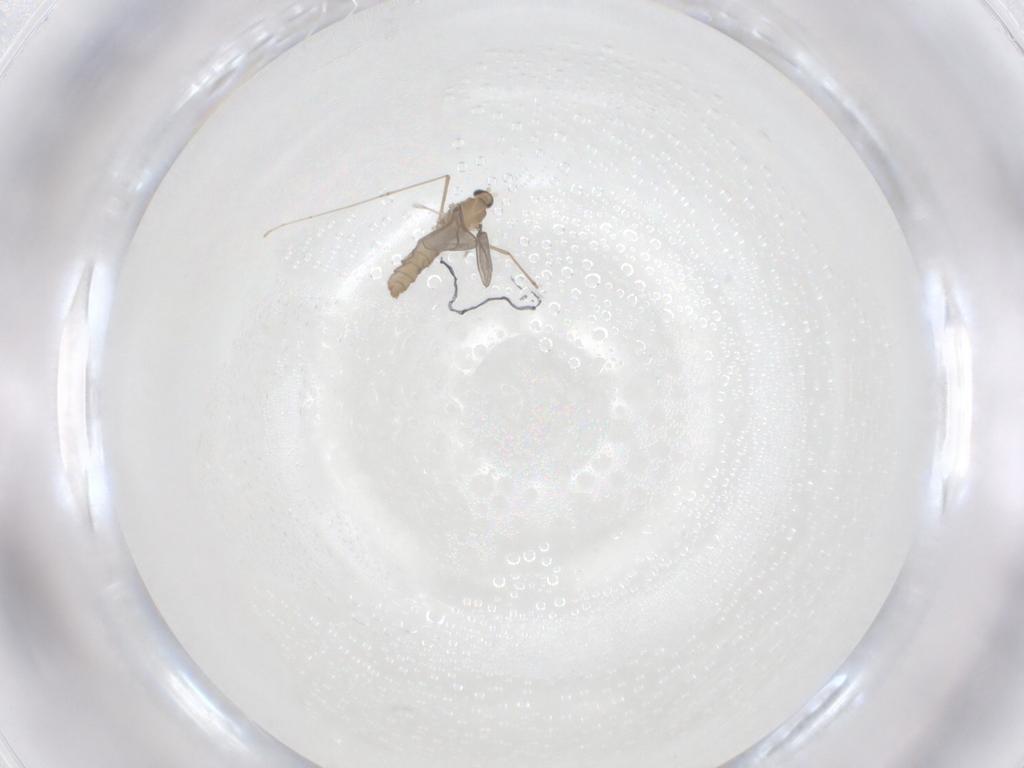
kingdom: Animalia
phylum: Arthropoda
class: Insecta
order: Diptera
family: Cecidomyiidae
